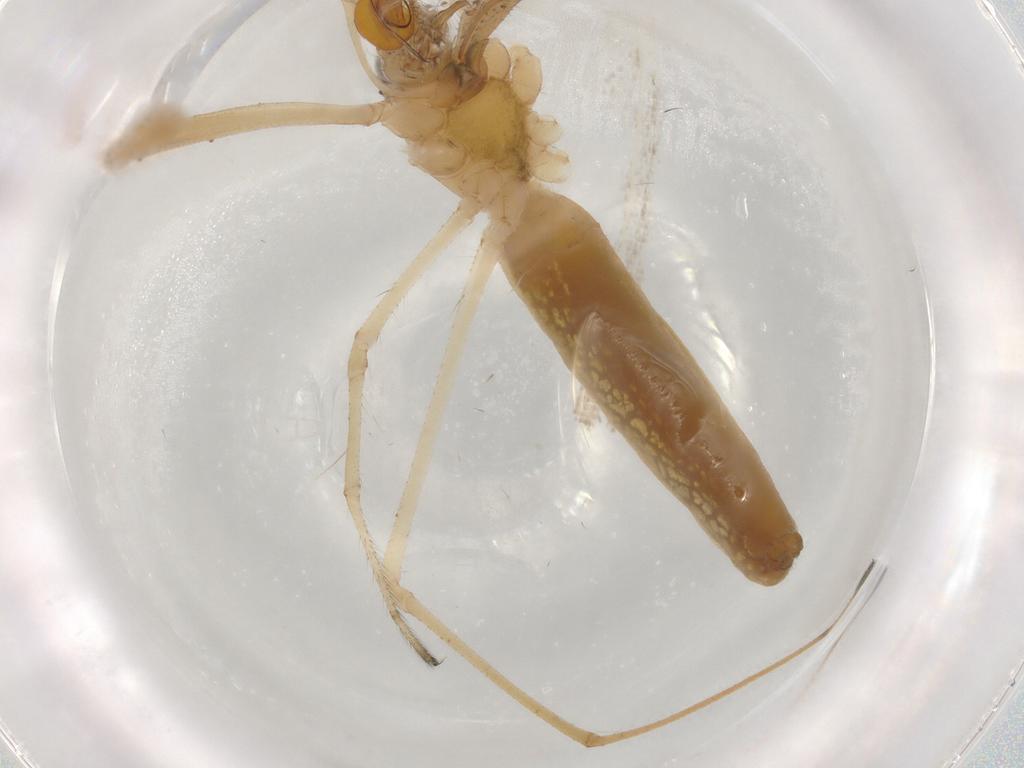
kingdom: Animalia
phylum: Arthropoda
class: Arachnida
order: Araneae
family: Tetragnathidae
